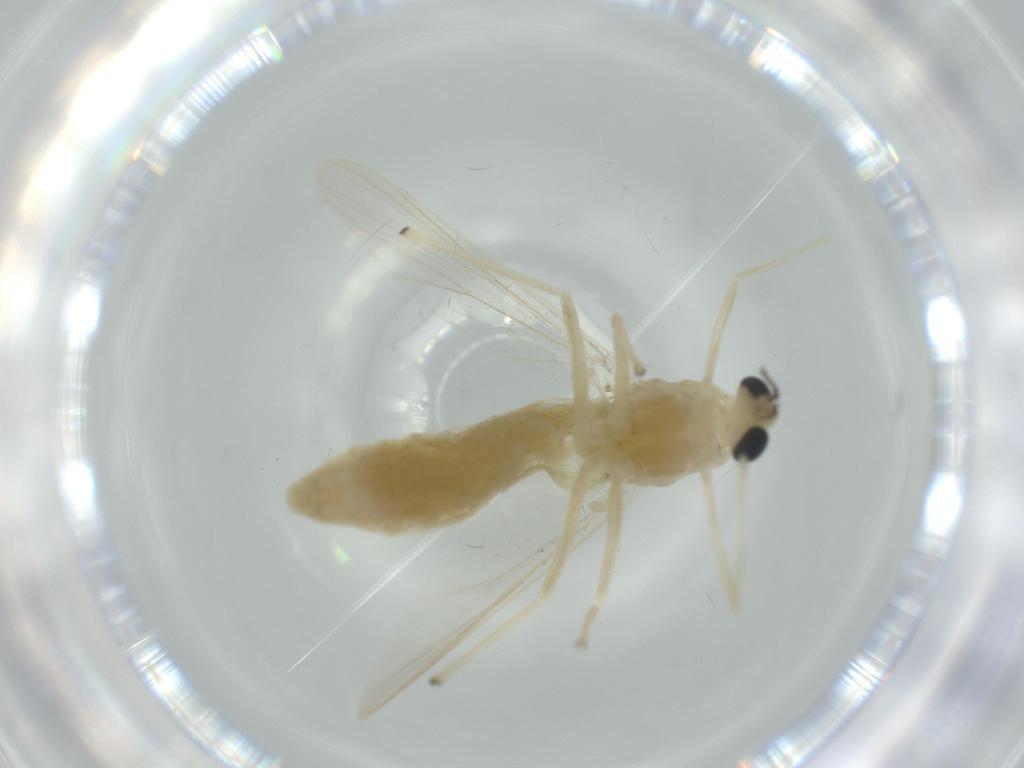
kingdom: Animalia
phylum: Arthropoda
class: Insecta
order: Diptera
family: Chironomidae
